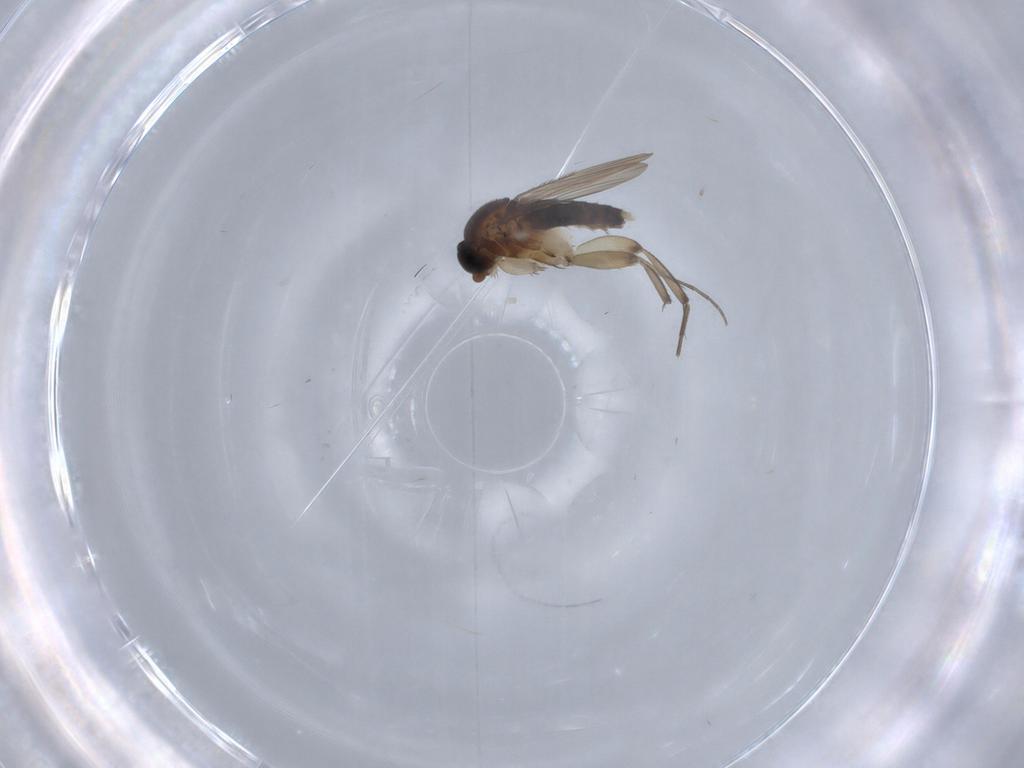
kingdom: Animalia
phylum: Arthropoda
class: Insecta
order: Diptera
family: Phoridae
